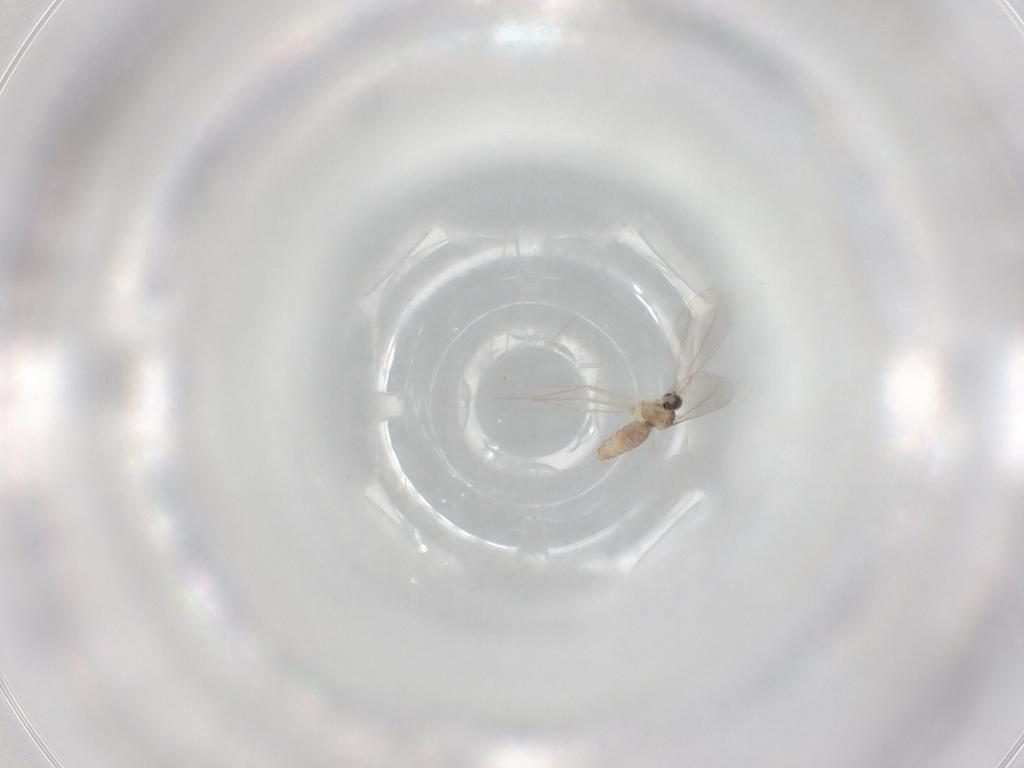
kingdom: Animalia
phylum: Arthropoda
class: Insecta
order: Diptera
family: Cecidomyiidae
